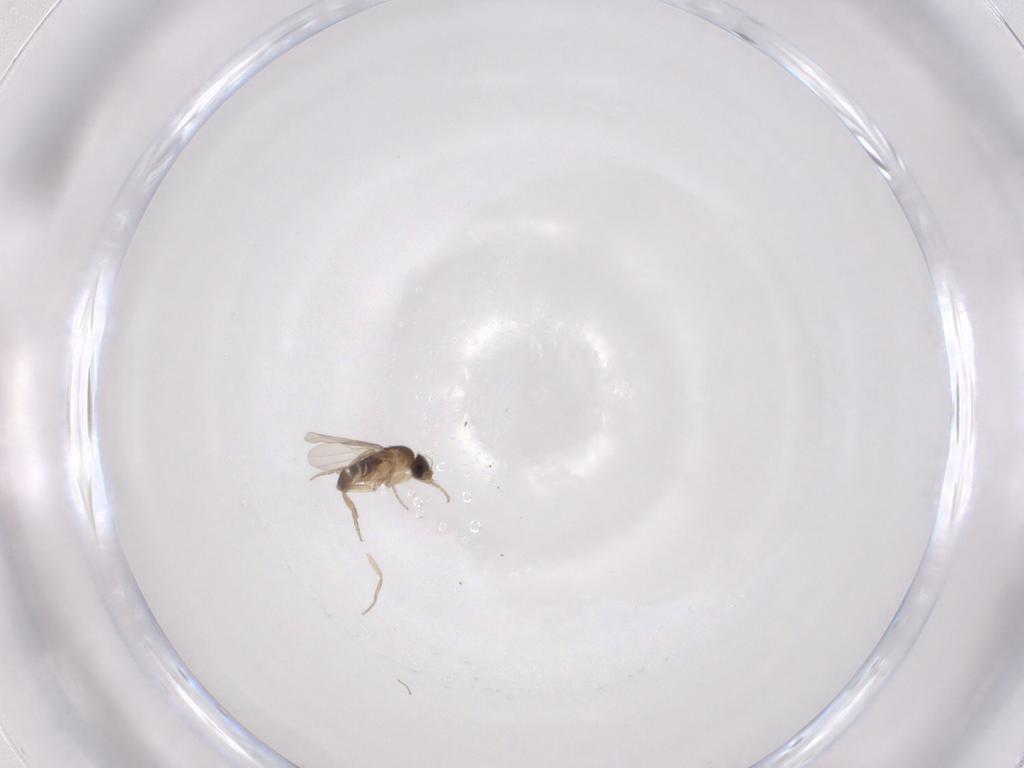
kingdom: Animalia
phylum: Arthropoda
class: Insecta
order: Diptera
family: Phoridae
